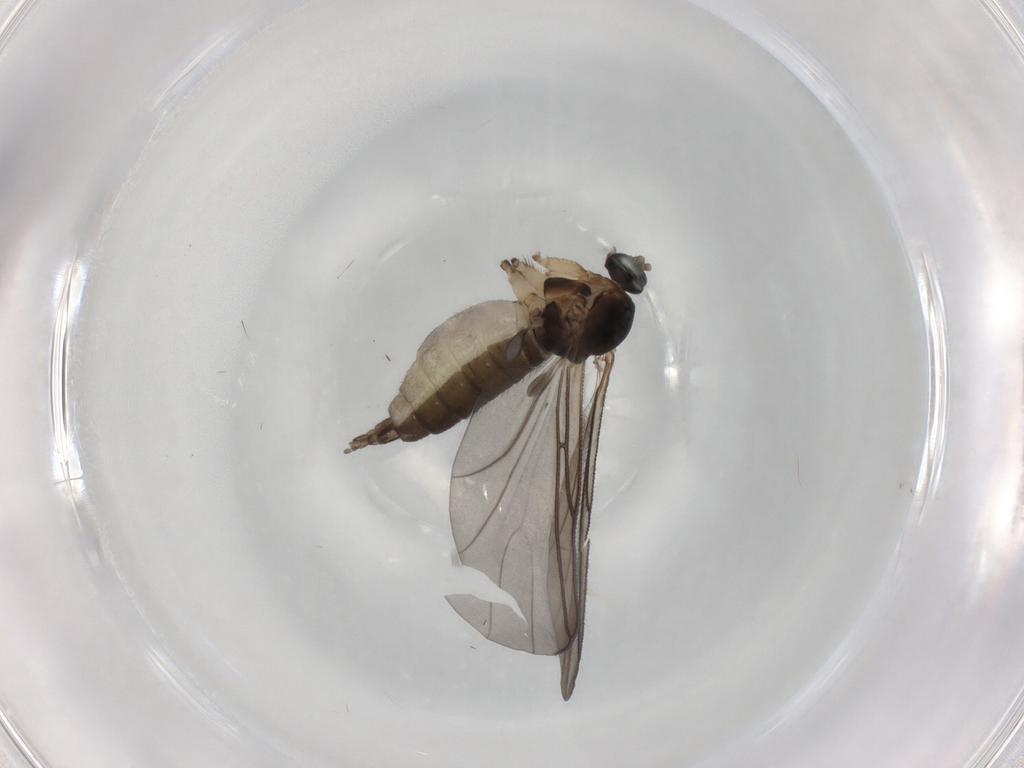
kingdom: Animalia
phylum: Arthropoda
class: Insecta
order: Diptera
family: Sciaridae
